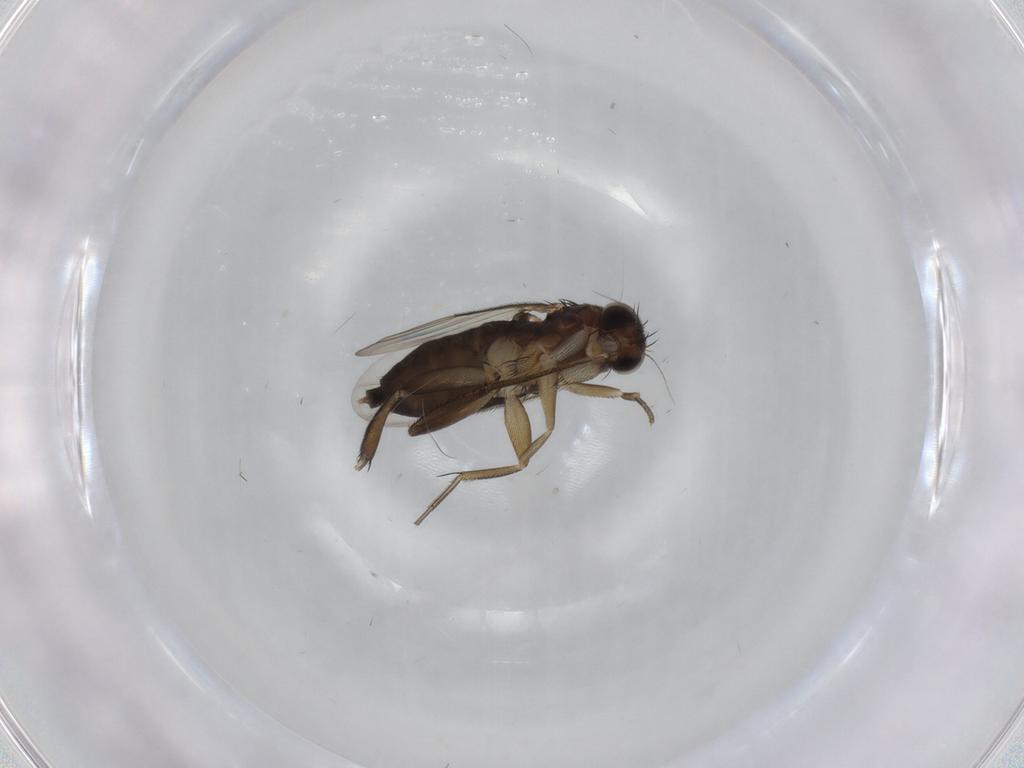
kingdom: Animalia
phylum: Arthropoda
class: Insecta
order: Diptera
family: Phoridae
